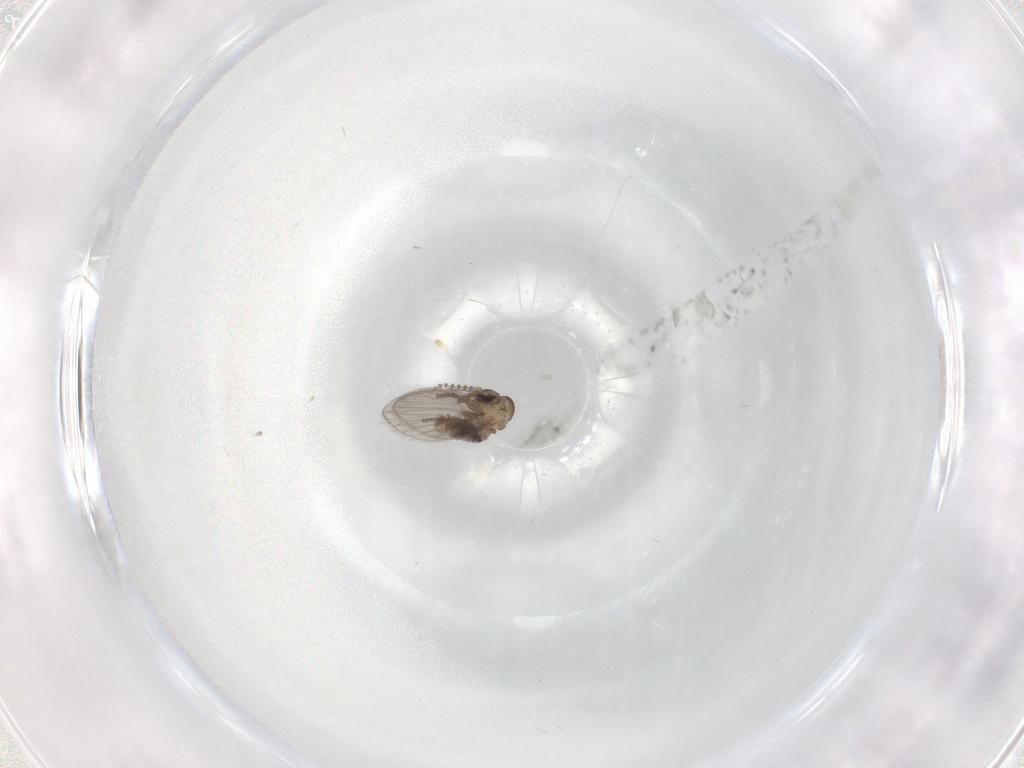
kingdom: Animalia
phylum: Arthropoda
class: Insecta
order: Diptera
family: Psychodidae
